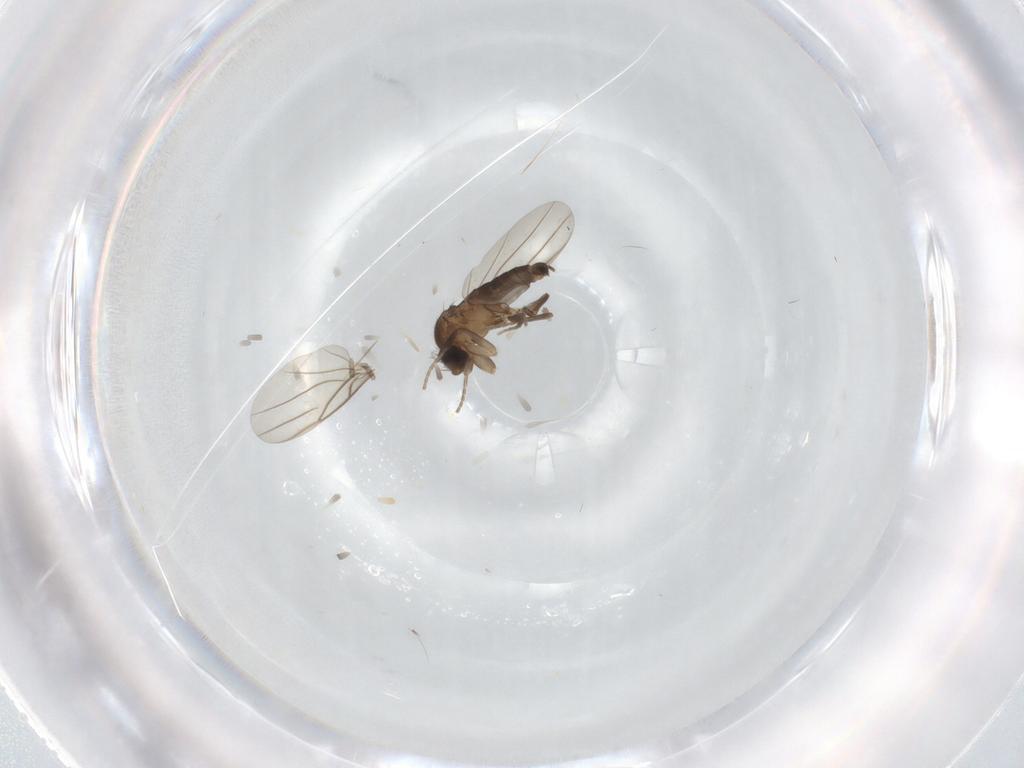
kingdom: Animalia
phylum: Arthropoda
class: Insecta
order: Diptera
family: Phoridae
